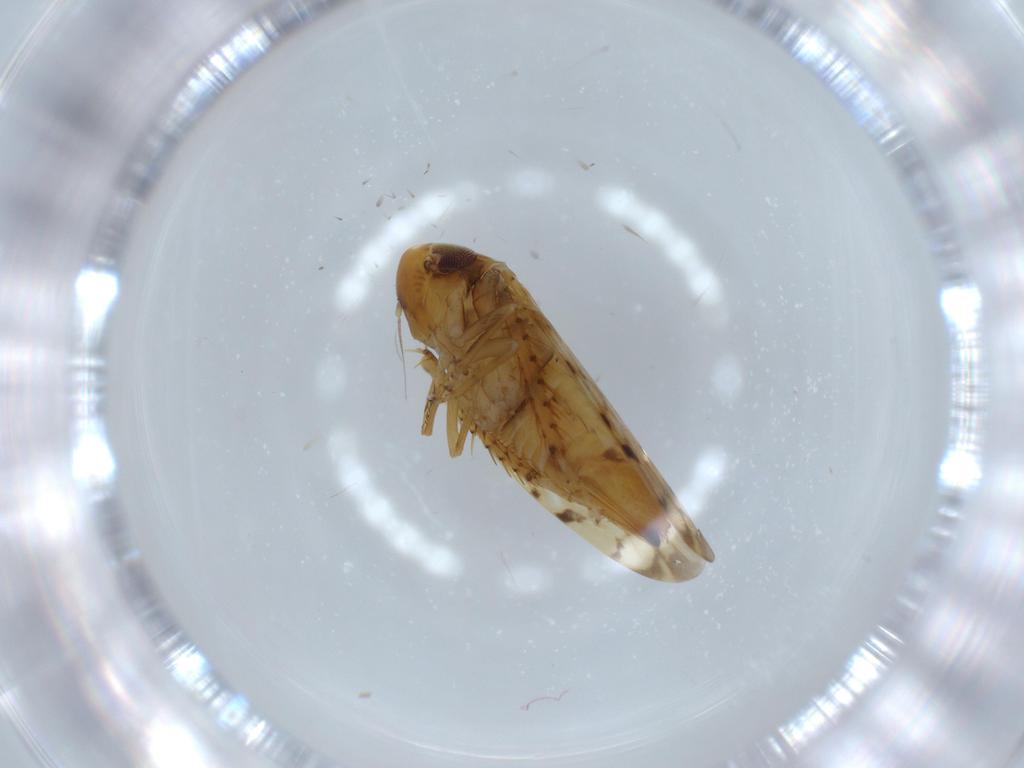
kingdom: Animalia
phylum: Arthropoda
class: Insecta
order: Hemiptera
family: Cicadellidae
